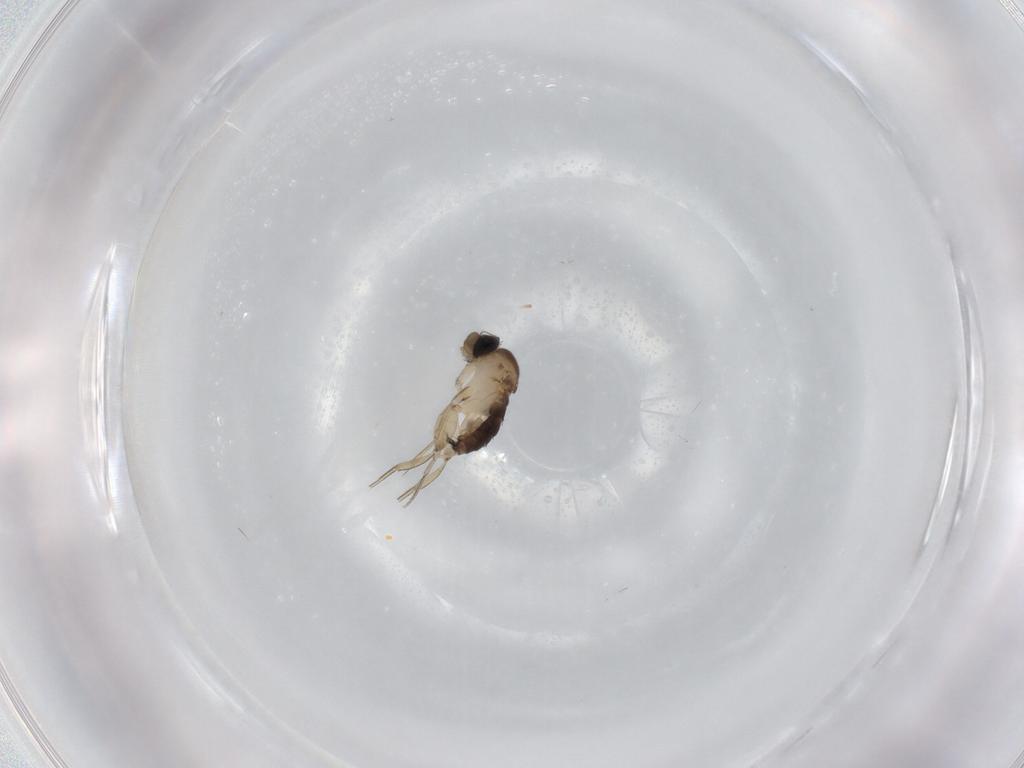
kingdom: Animalia
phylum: Arthropoda
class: Insecta
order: Diptera
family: Phoridae
